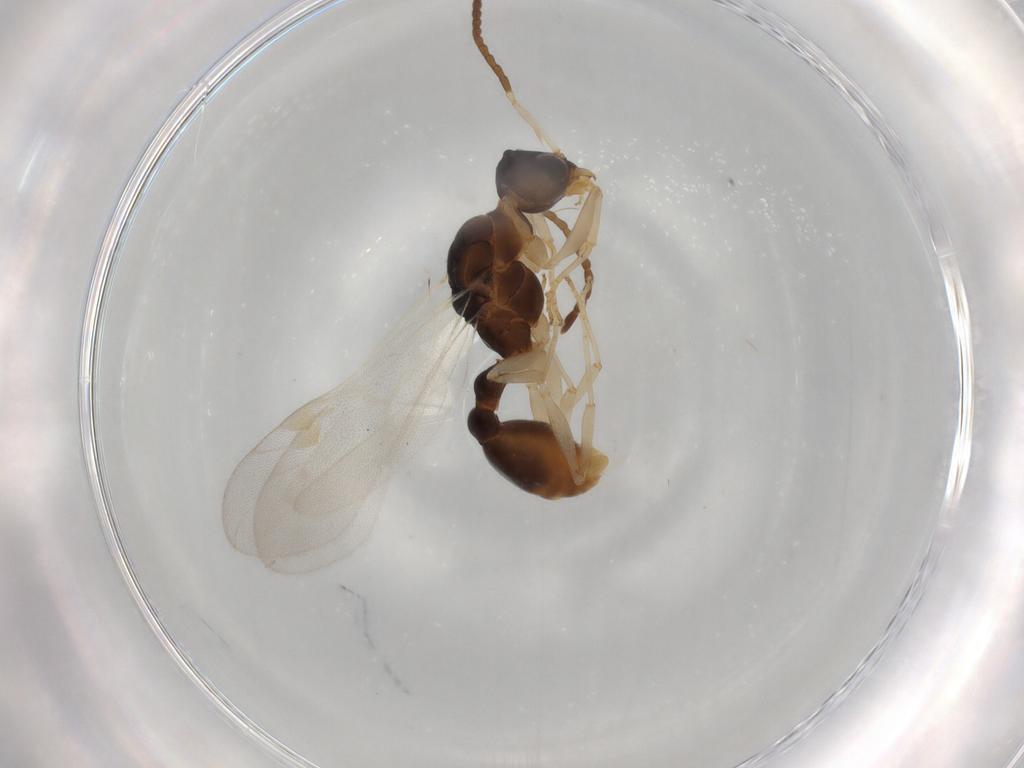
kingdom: Animalia
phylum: Arthropoda
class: Insecta
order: Hymenoptera
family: Formicidae
